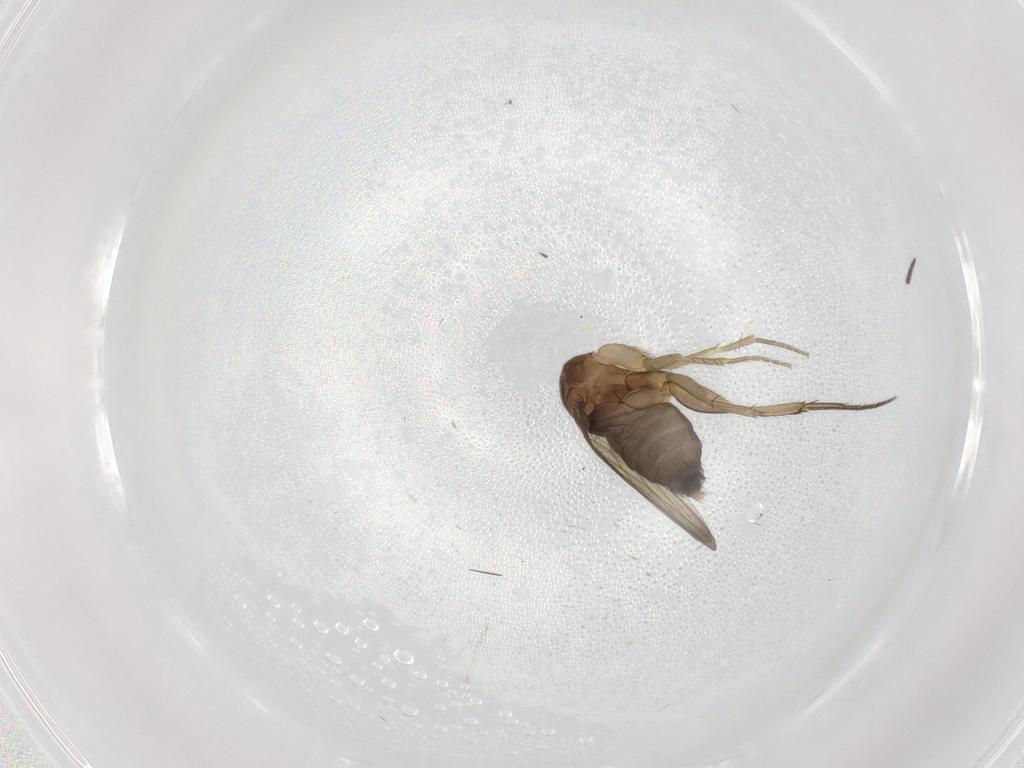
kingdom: Animalia
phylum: Arthropoda
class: Insecta
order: Diptera
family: Phoridae
